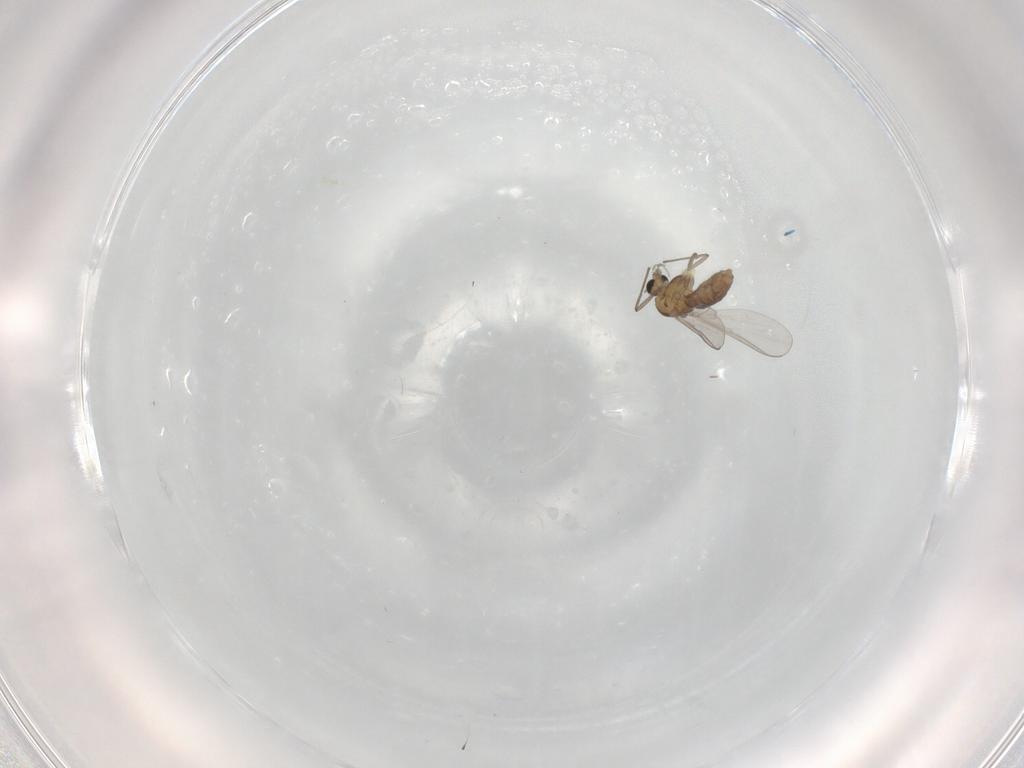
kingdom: Animalia
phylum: Arthropoda
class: Insecta
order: Diptera
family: Chironomidae
